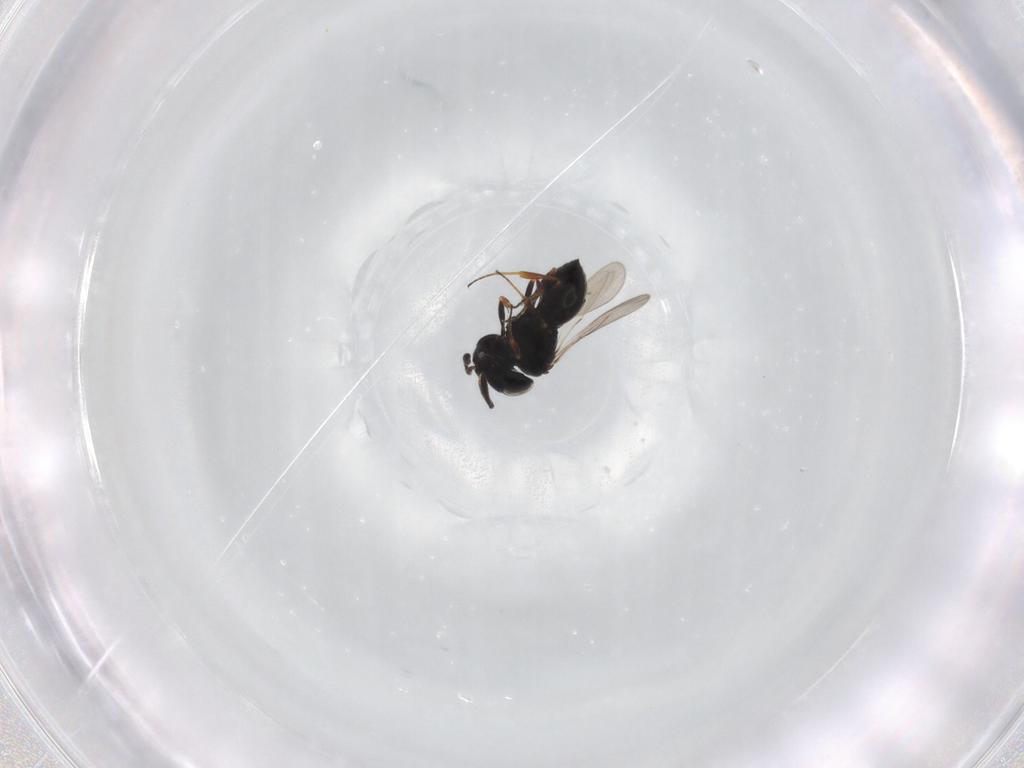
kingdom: Animalia
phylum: Arthropoda
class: Insecta
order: Hymenoptera
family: Scelionidae
